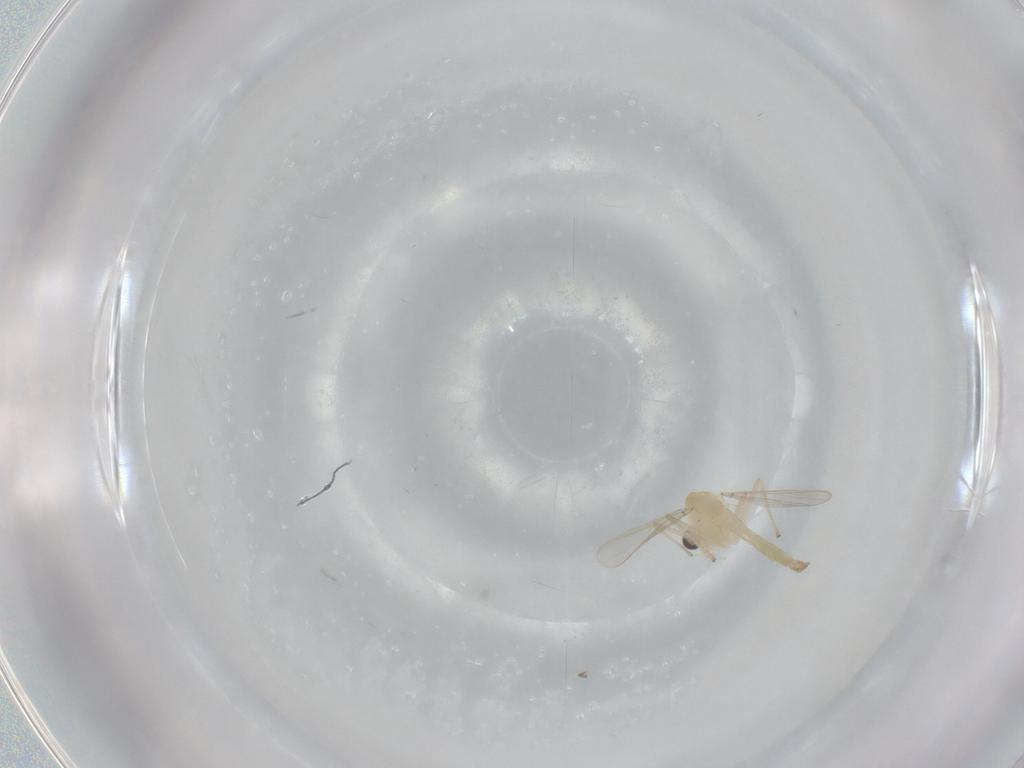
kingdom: Animalia
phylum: Arthropoda
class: Insecta
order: Diptera
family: Chironomidae
